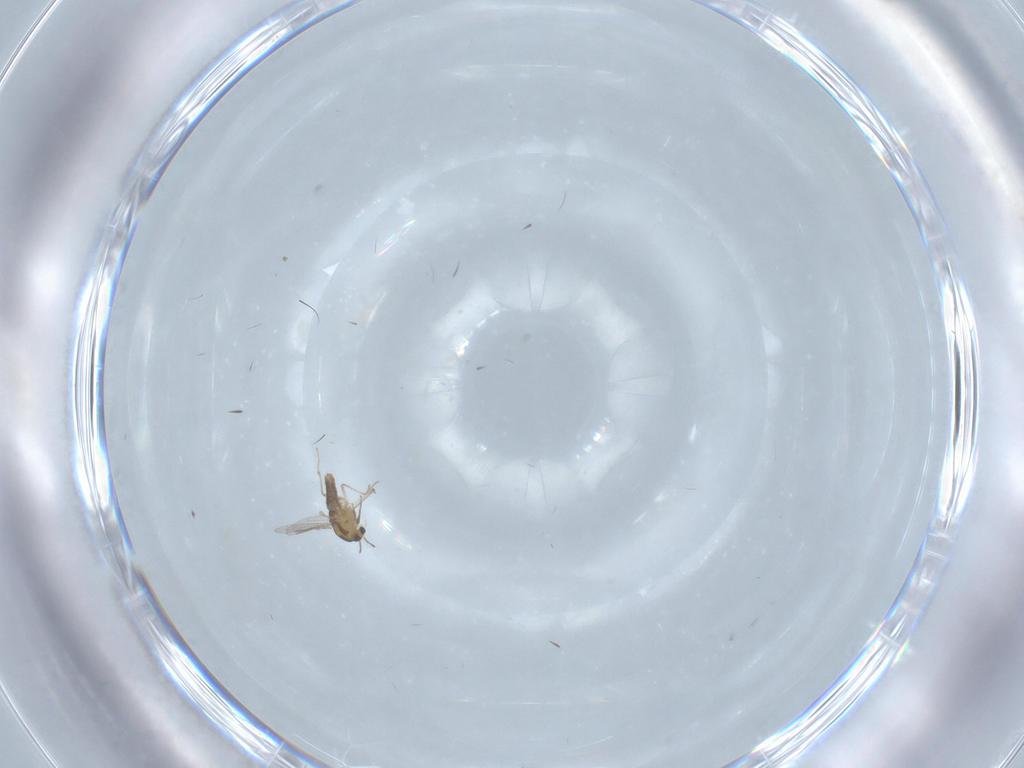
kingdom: Animalia
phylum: Arthropoda
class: Insecta
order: Diptera
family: Chironomidae
